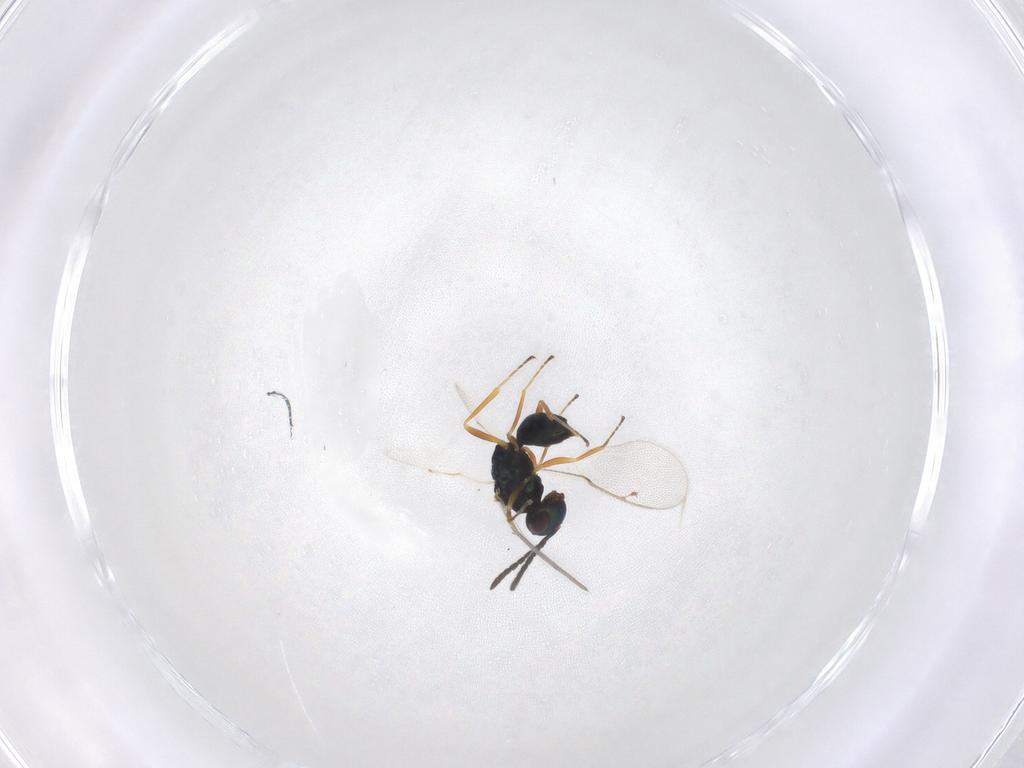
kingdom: Animalia
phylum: Arthropoda
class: Insecta
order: Hymenoptera
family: Pteromalidae
